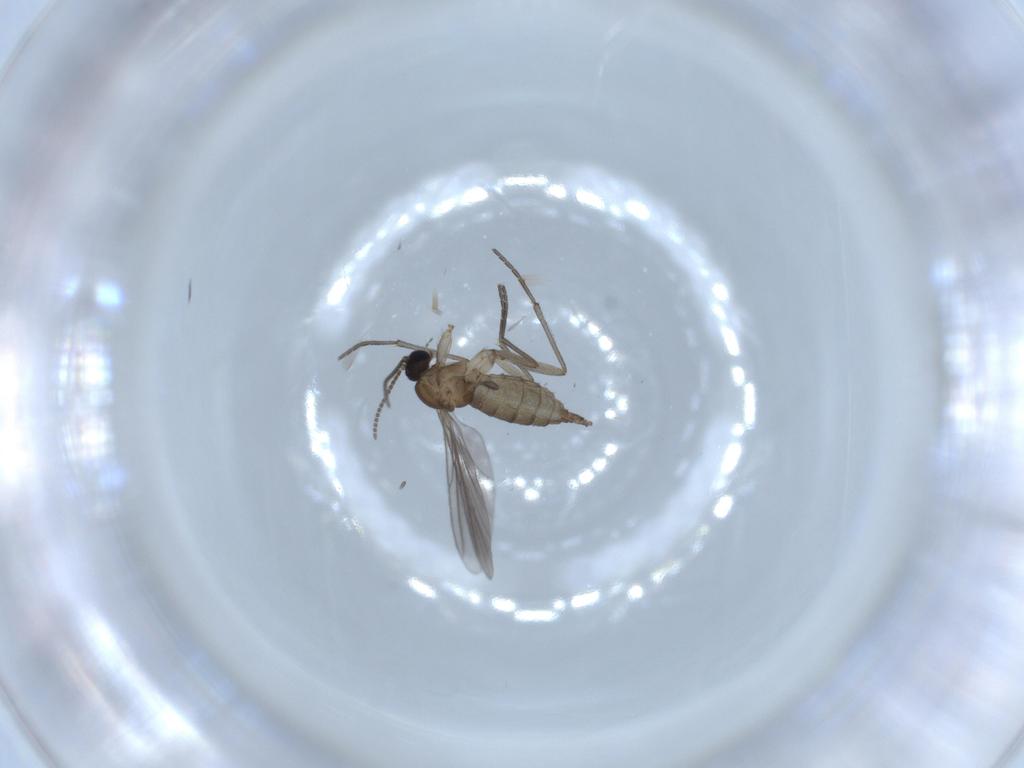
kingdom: Animalia
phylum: Arthropoda
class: Insecta
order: Diptera
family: Sciaridae
